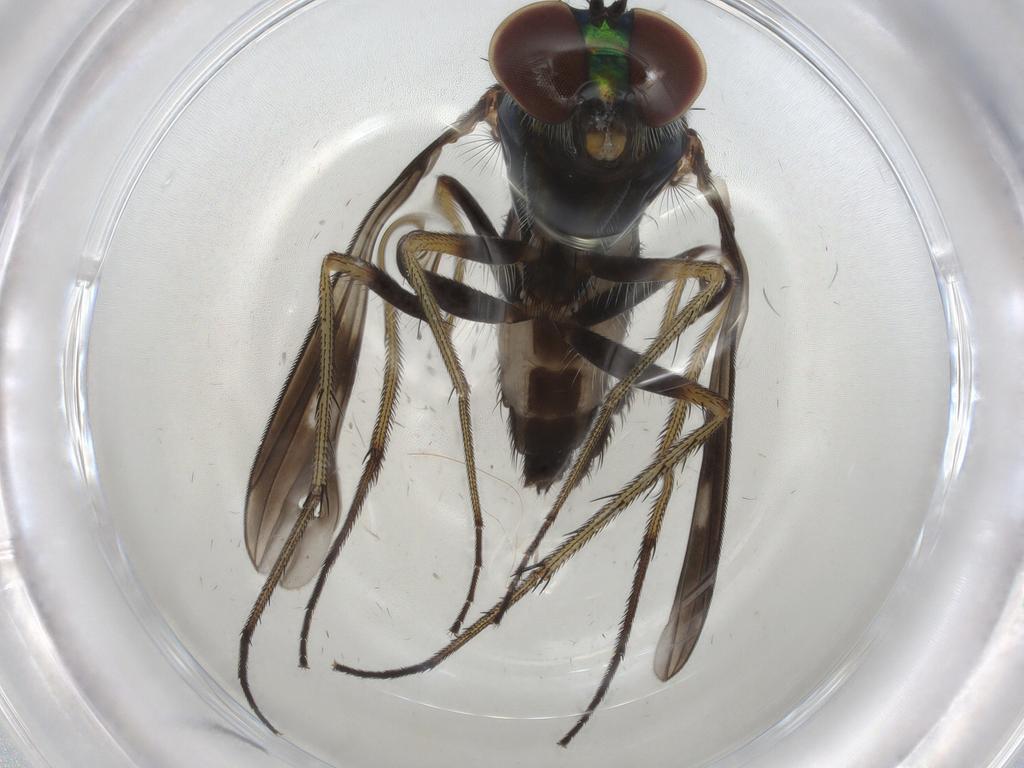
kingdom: Animalia
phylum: Arthropoda
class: Insecta
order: Diptera
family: Dolichopodidae
